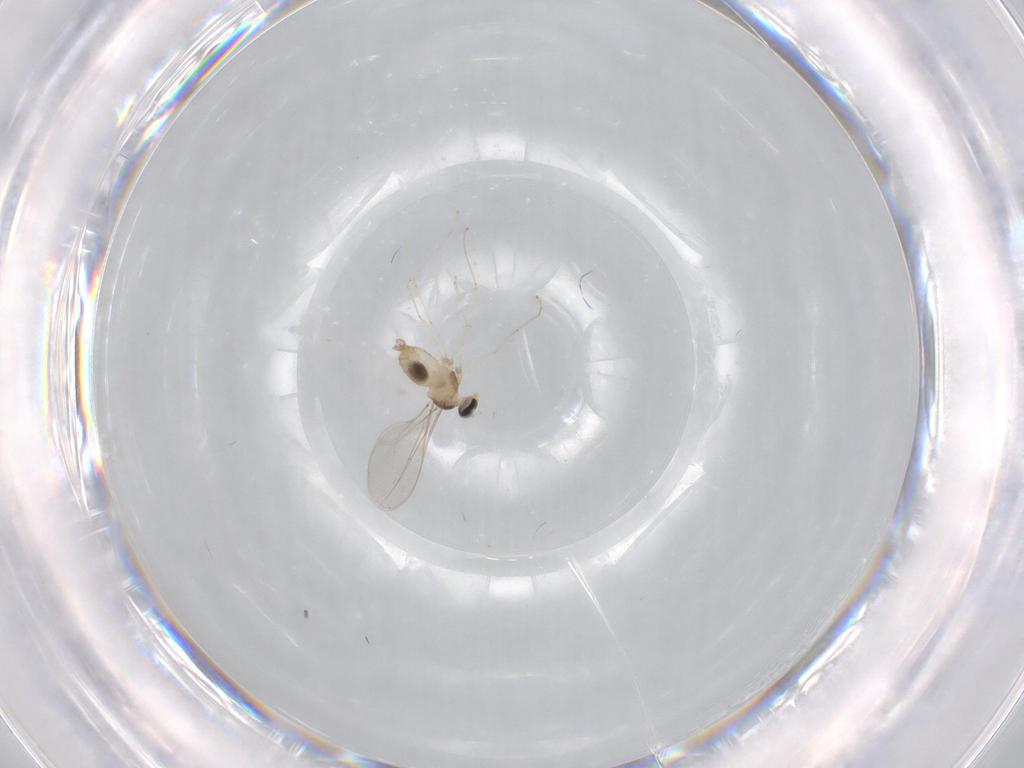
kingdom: Animalia
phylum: Arthropoda
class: Insecta
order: Diptera
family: Cecidomyiidae
